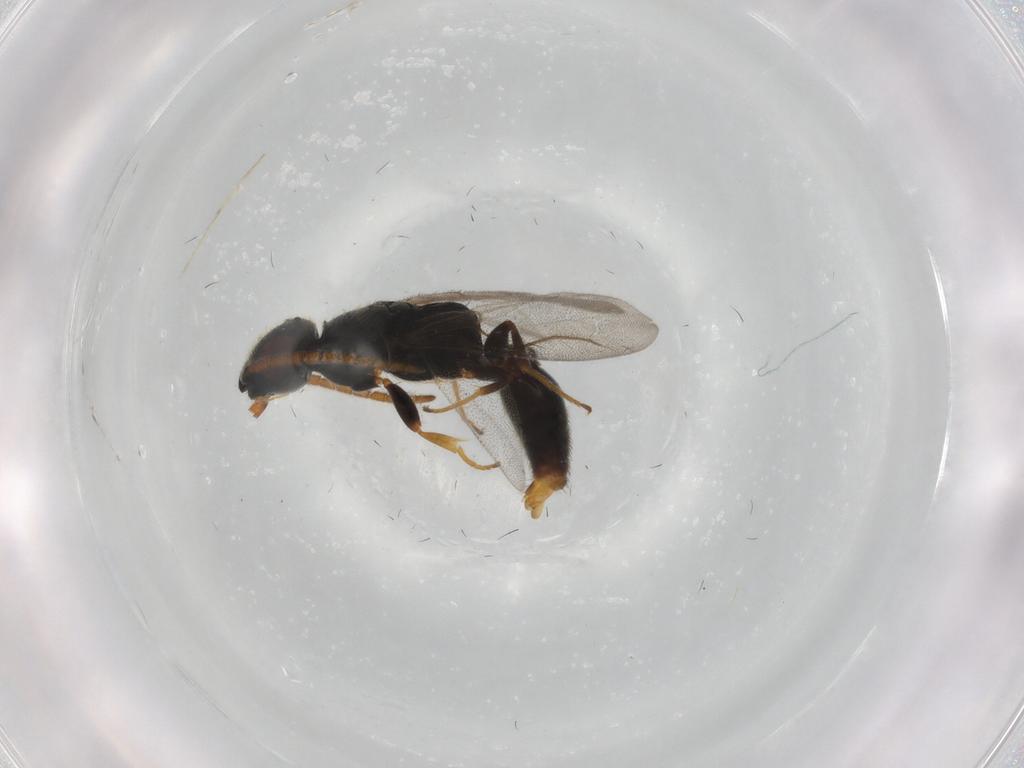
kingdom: Animalia
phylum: Arthropoda
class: Insecta
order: Hymenoptera
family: Bethylidae
